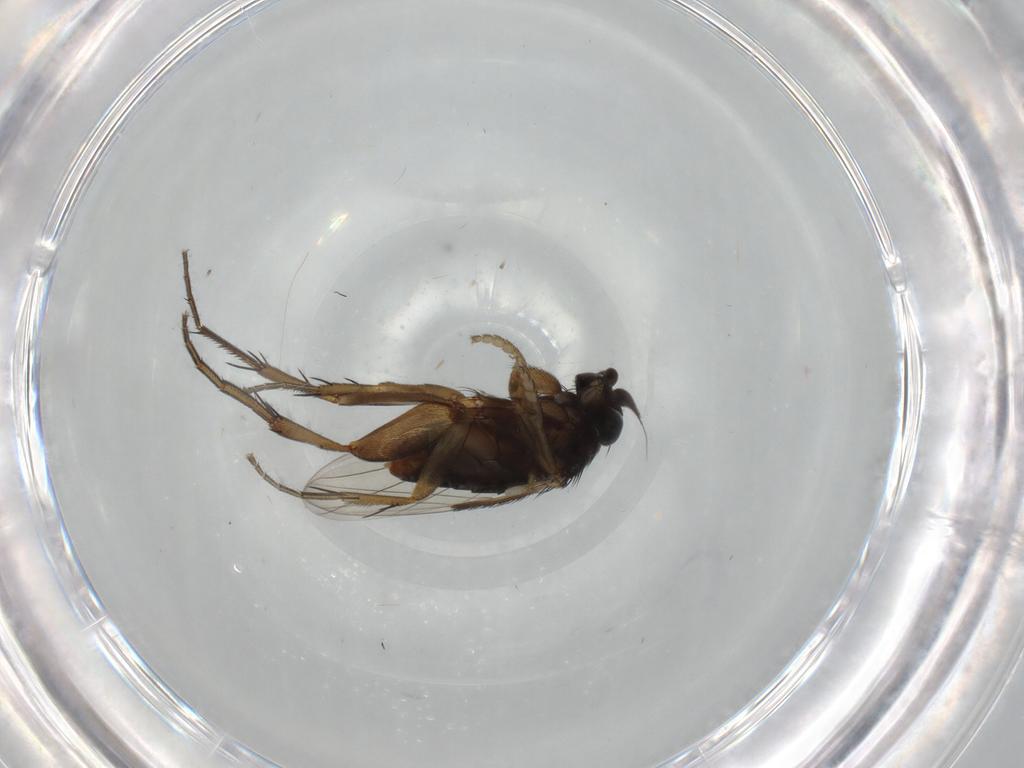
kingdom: Animalia
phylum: Arthropoda
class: Insecta
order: Diptera
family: Phoridae
